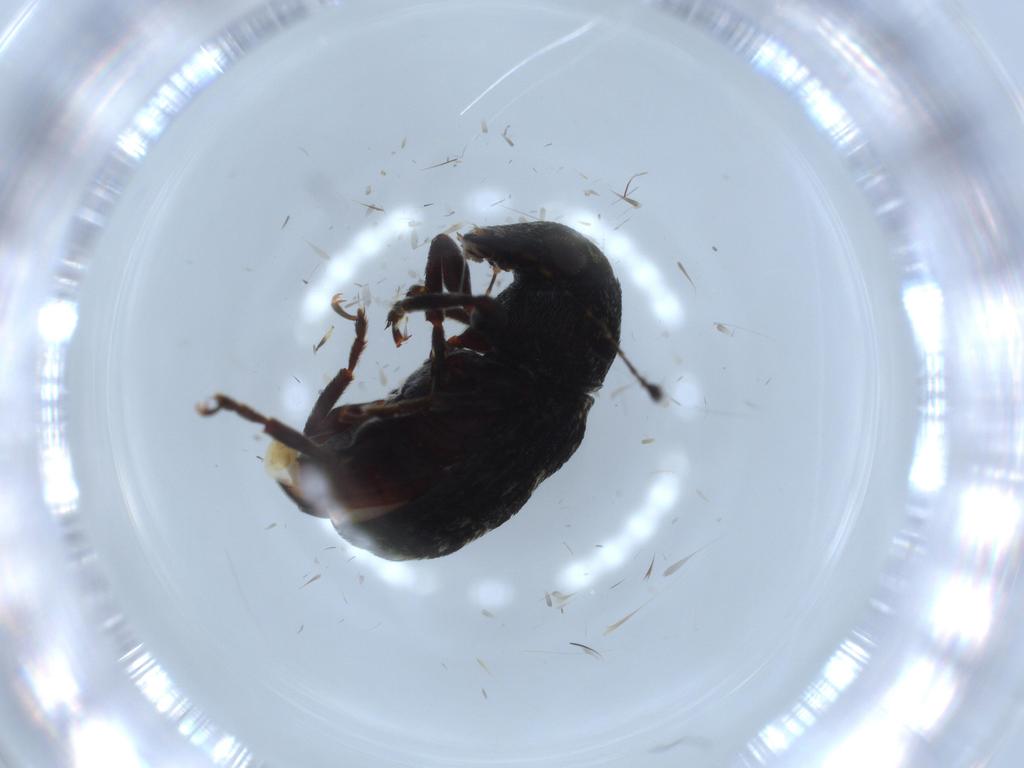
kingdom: Animalia
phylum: Arthropoda
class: Insecta
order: Coleoptera
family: Anthribidae
